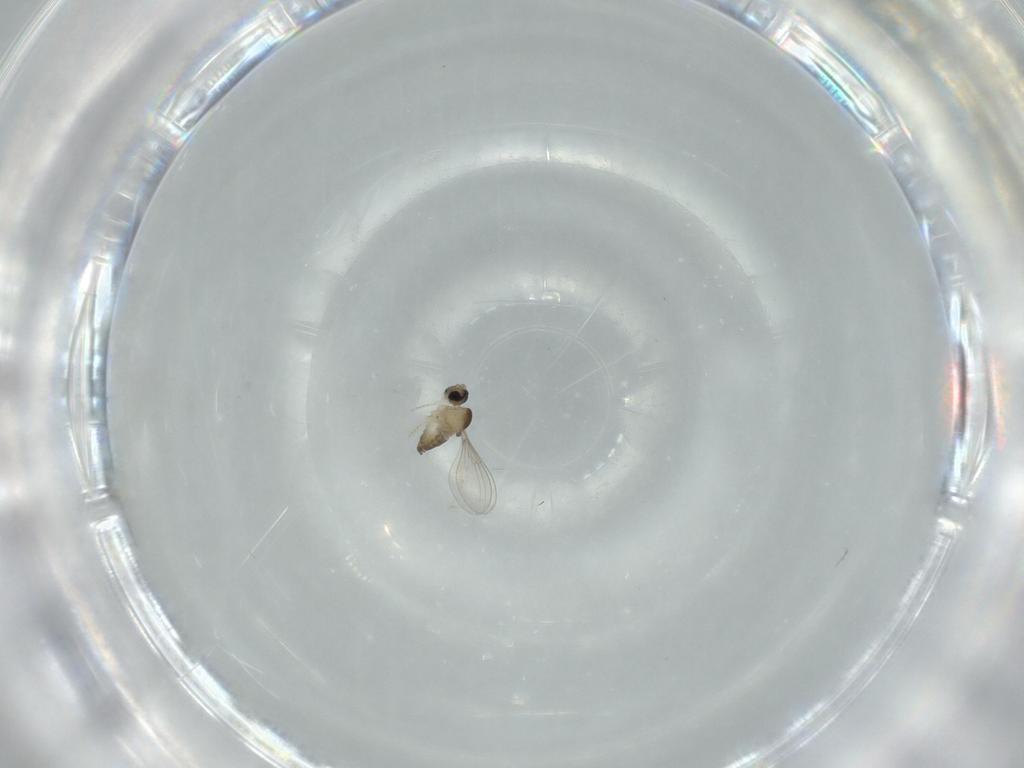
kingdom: Animalia
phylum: Arthropoda
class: Insecta
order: Diptera
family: Cecidomyiidae
